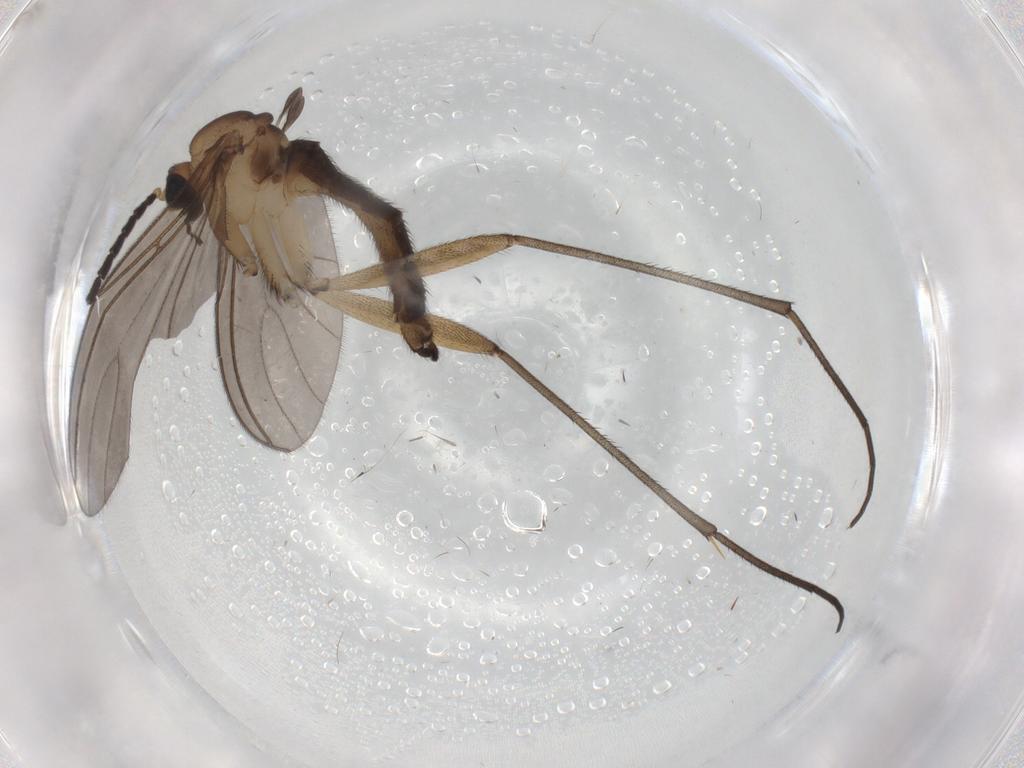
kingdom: Animalia
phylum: Arthropoda
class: Insecta
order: Diptera
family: Sciaridae
